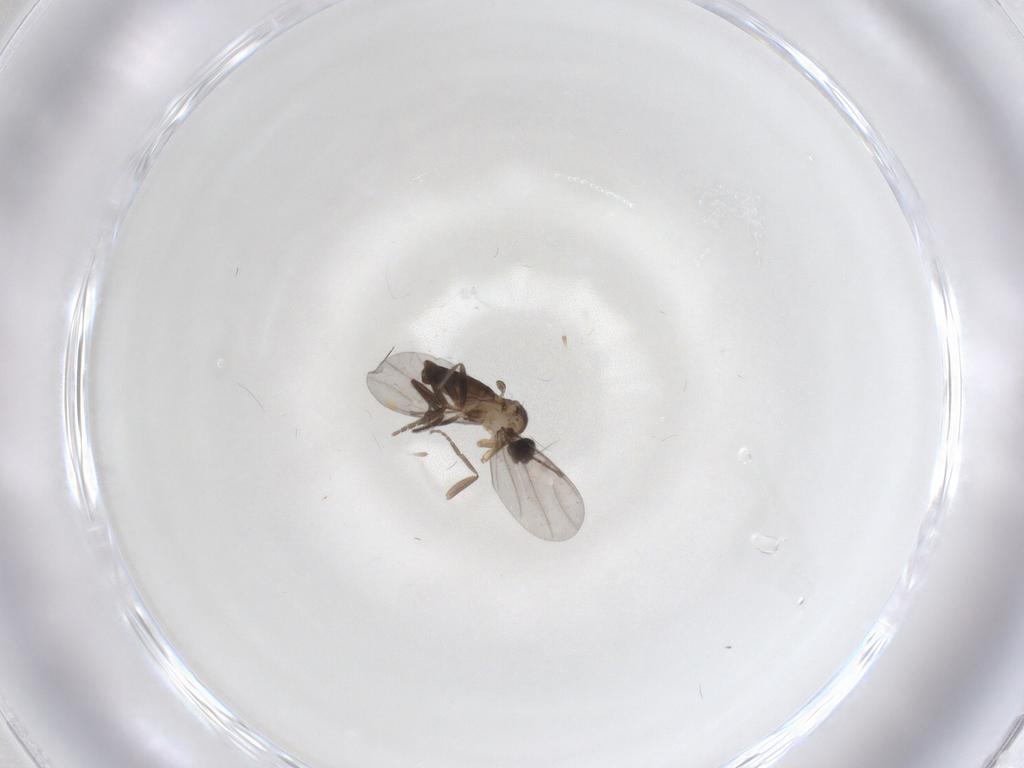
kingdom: Animalia
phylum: Arthropoda
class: Insecta
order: Diptera
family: Phoridae
